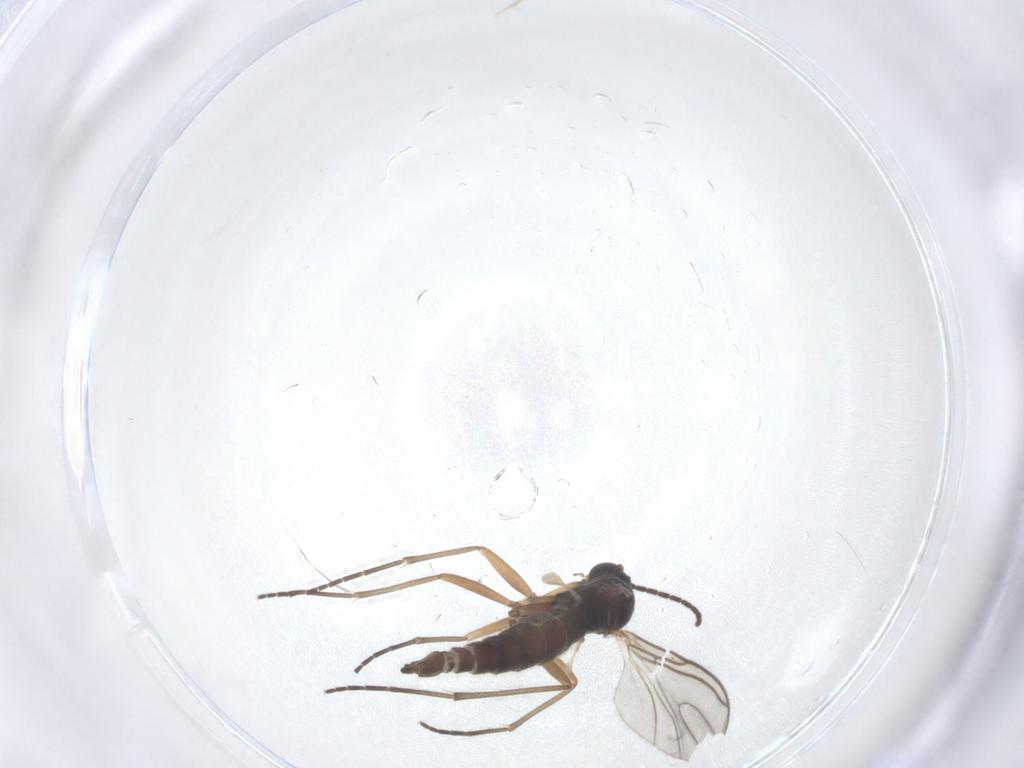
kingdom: Animalia
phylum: Arthropoda
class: Insecta
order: Diptera
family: Sciaridae
